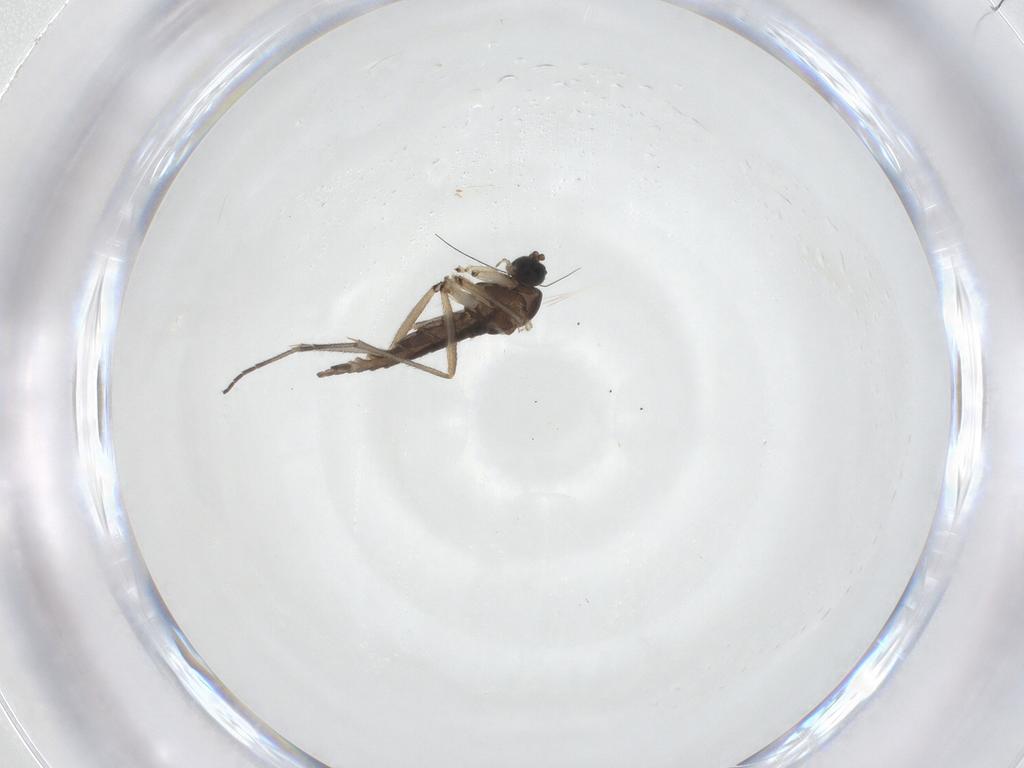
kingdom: Animalia
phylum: Arthropoda
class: Insecta
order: Diptera
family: Sciaridae
